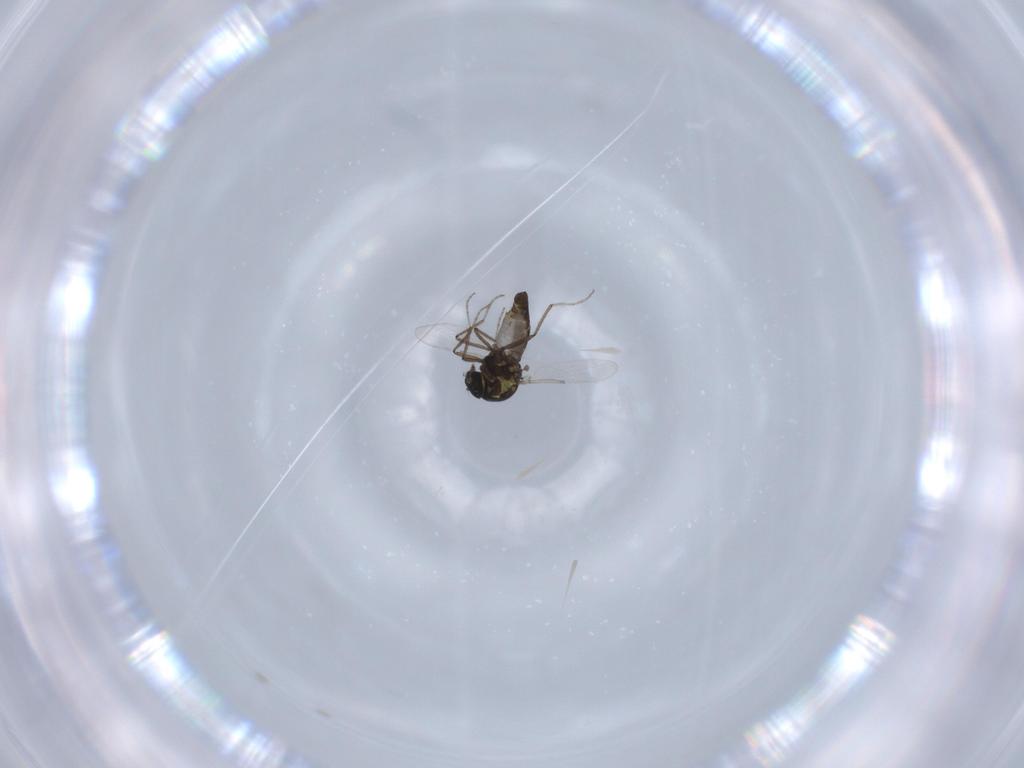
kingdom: Animalia
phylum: Arthropoda
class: Insecta
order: Diptera
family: Ceratopogonidae
